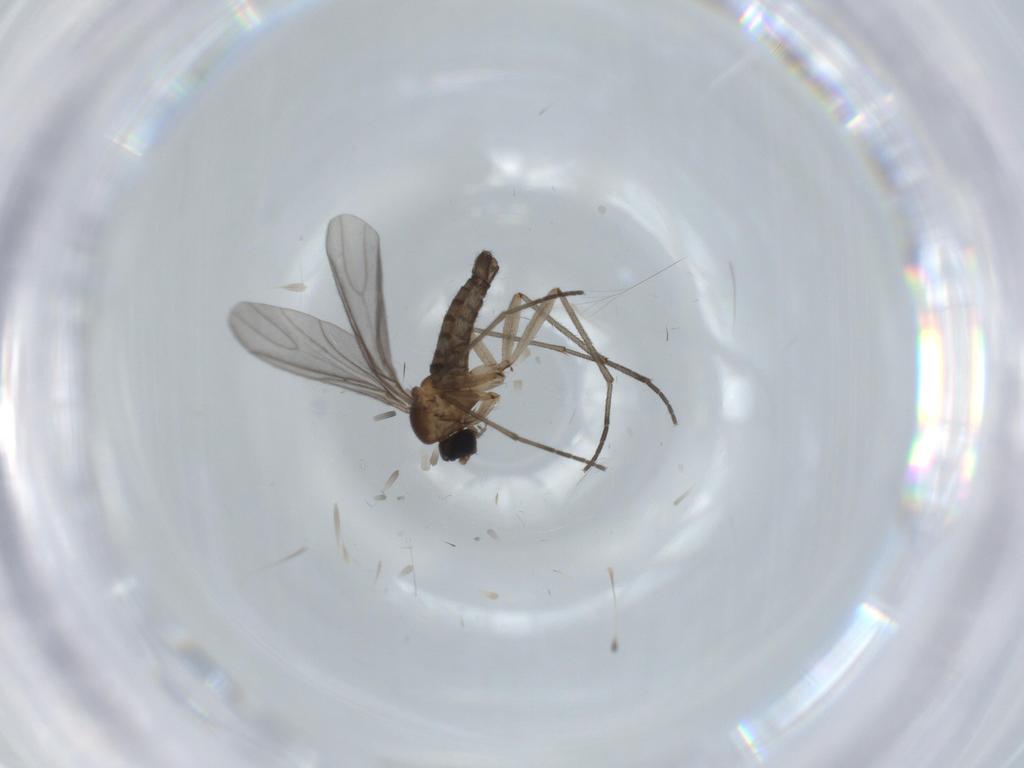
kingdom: Animalia
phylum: Arthropoda
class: Insecta
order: Diptera
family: Sciaridae
